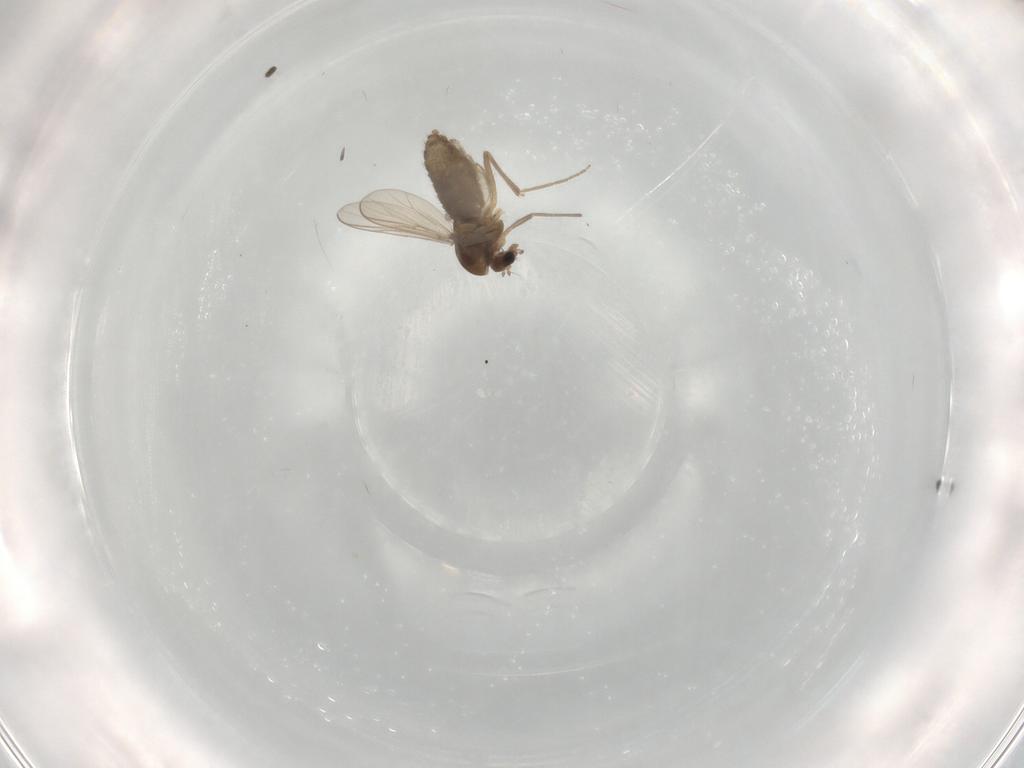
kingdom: Animalia
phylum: Arthropoda
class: Insecta
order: Diptera
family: Chironomidae
